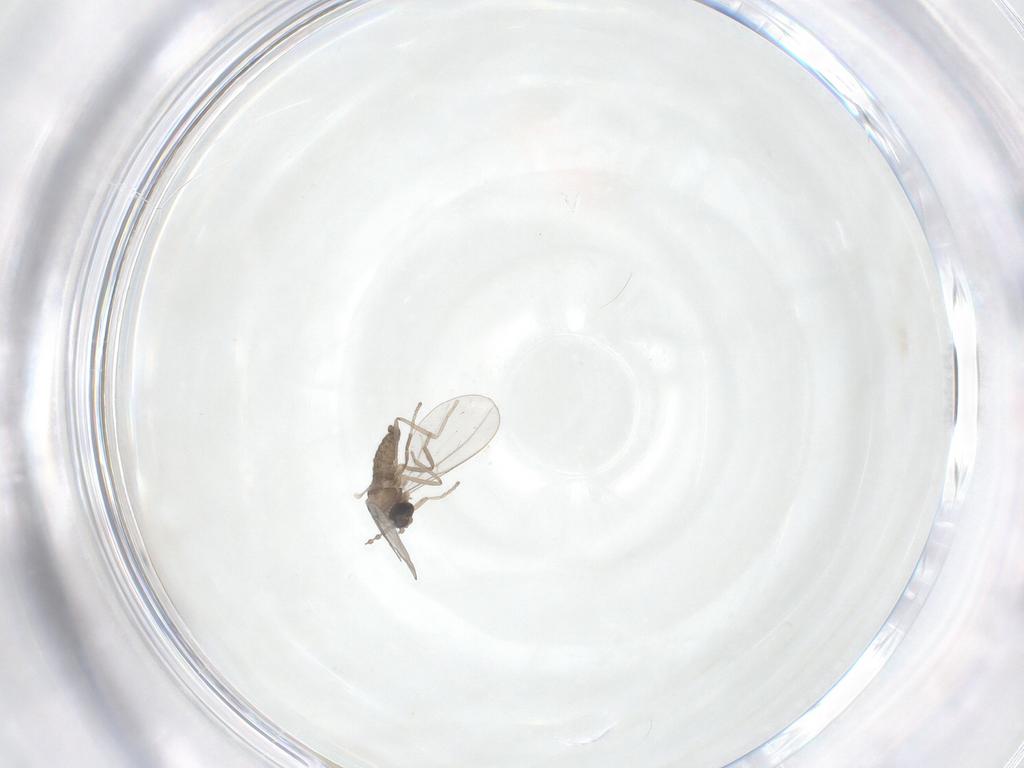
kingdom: Animalia
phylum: Arthropoda
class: Insecta
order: Diptera
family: Cecidomyiidae
